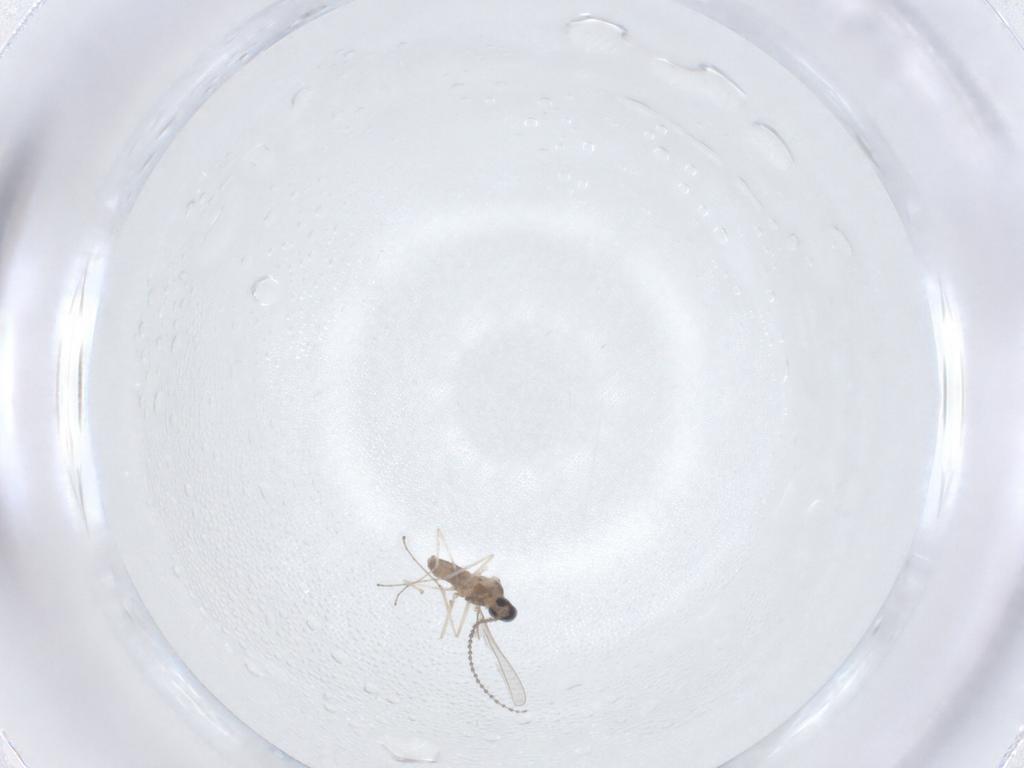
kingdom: Animalia
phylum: Arthropoda
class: Insecta
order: Diptera
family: Cecidomyiidae
